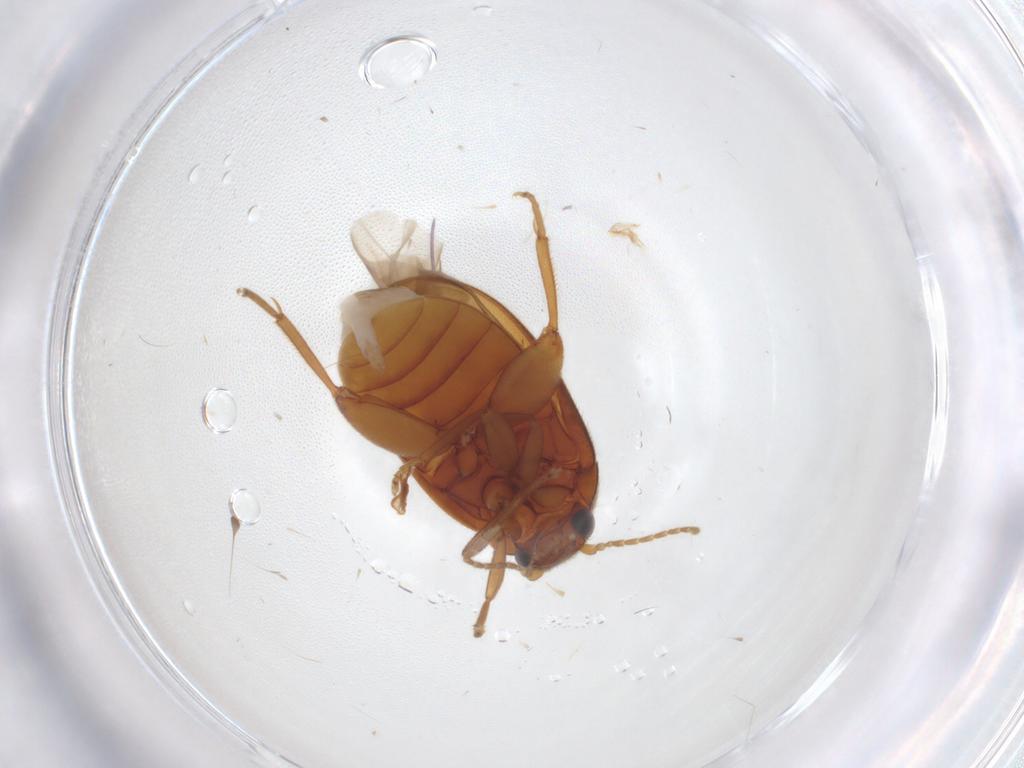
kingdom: Animalia
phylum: Arthropoda
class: Insecta
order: Coleoptera
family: Scirtidae
